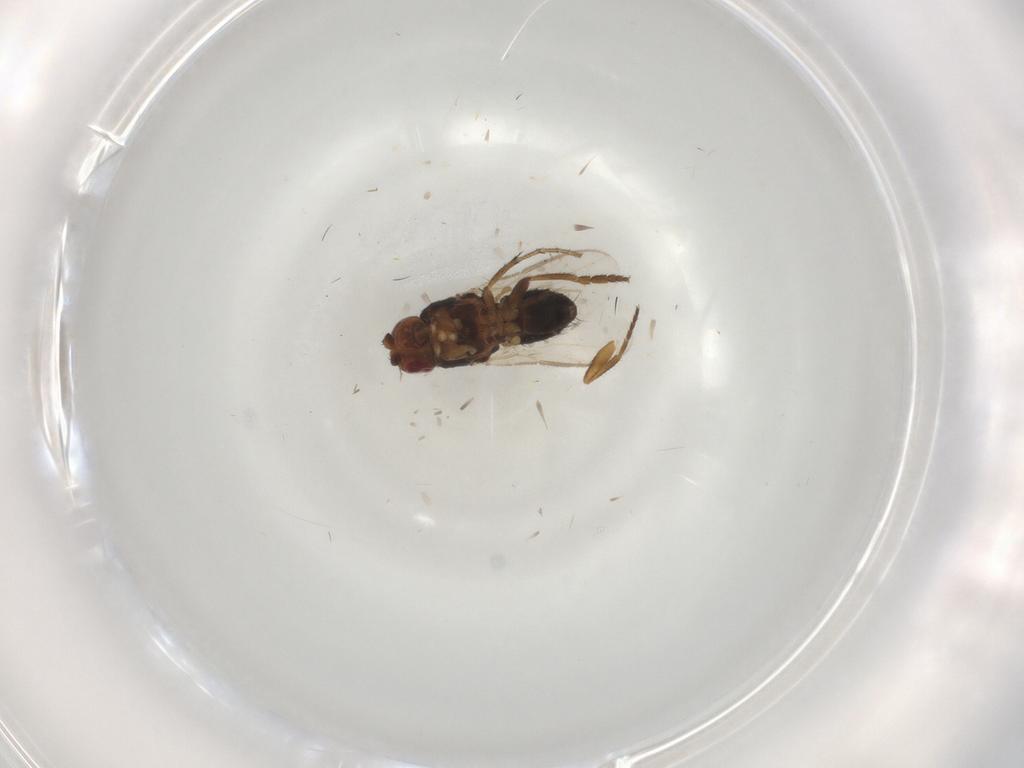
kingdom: Animalia
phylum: Arthropoda
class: Insecta
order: Diptera
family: Sphaeroceridae
